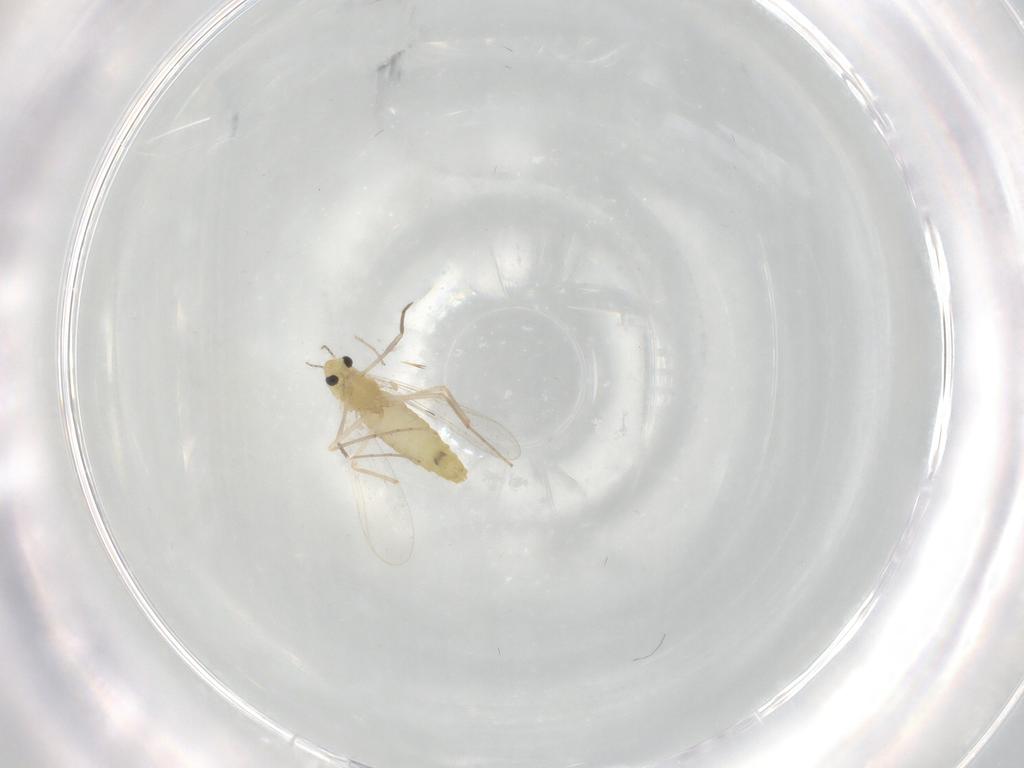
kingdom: Animalia
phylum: Arthropoda
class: Insecta
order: Diptera
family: Chironomidae
